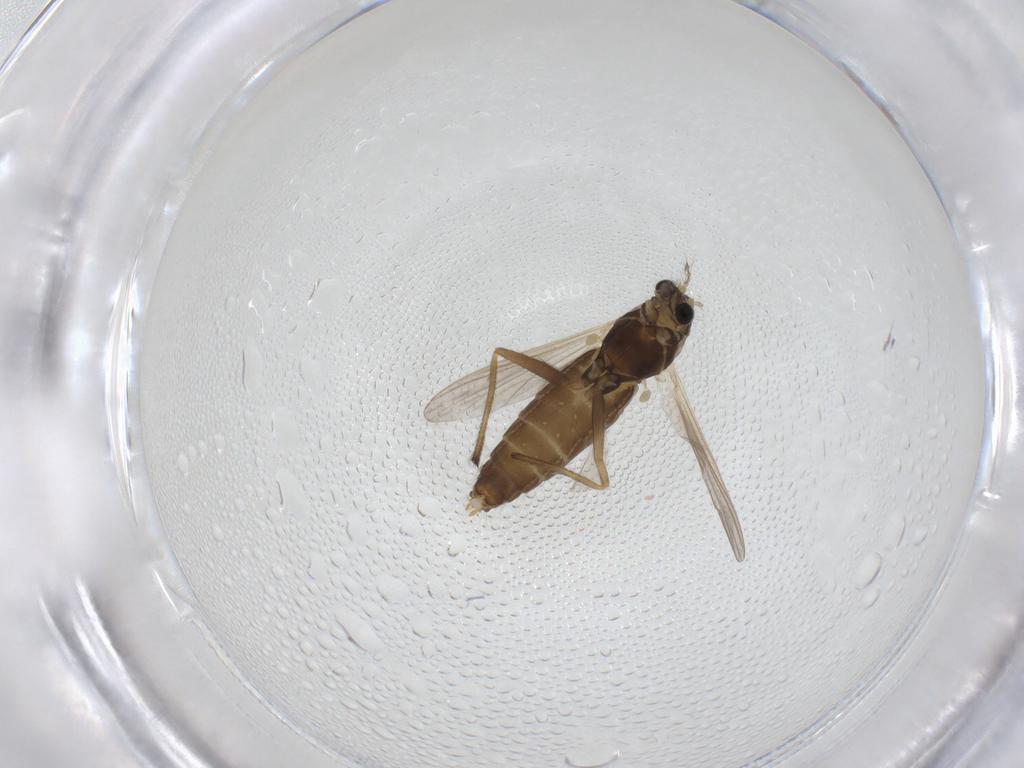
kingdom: Animalia
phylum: Arthropoda
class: Insecta
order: Diptera
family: Chironomidae
